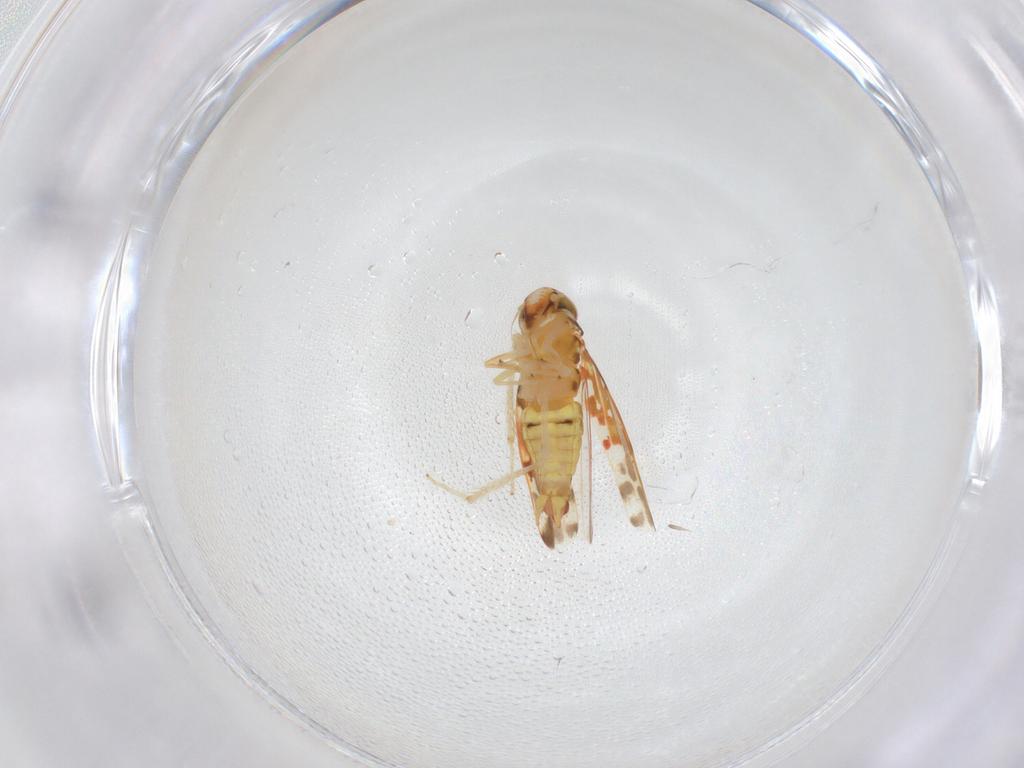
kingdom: Animalia
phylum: Arthropoda
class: Insecta
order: Hemiptera
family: Cicadellidae
